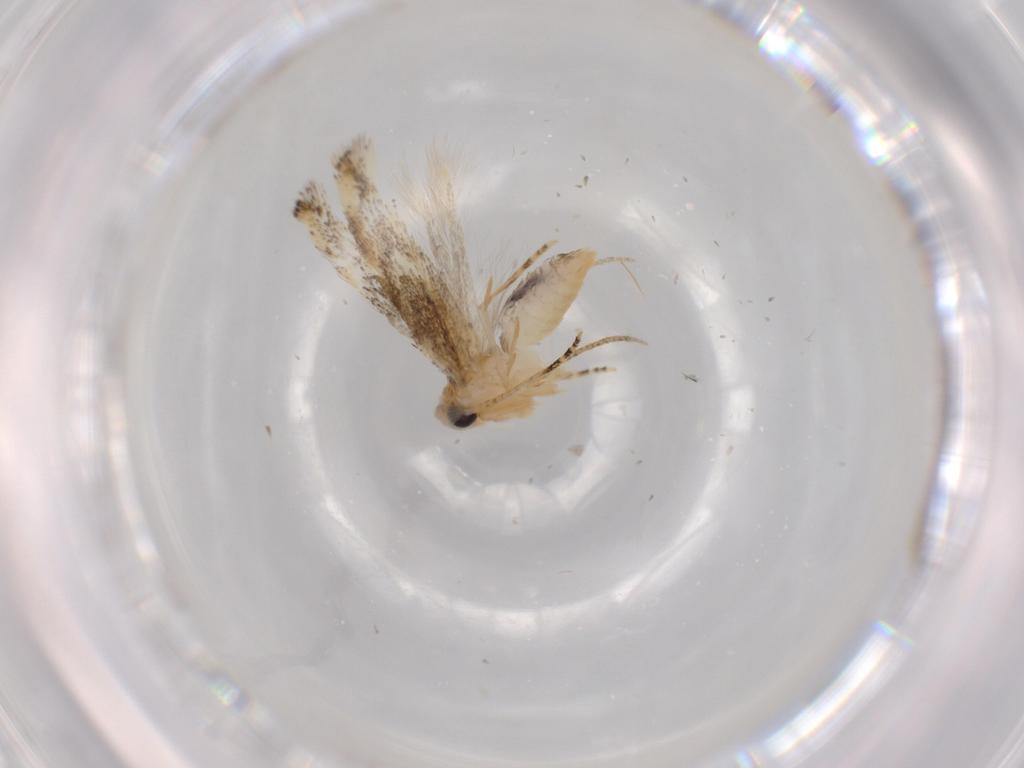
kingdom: Animalia
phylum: Arthropoda
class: Insecta
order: Lepidoptera
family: Bucculatricidae
